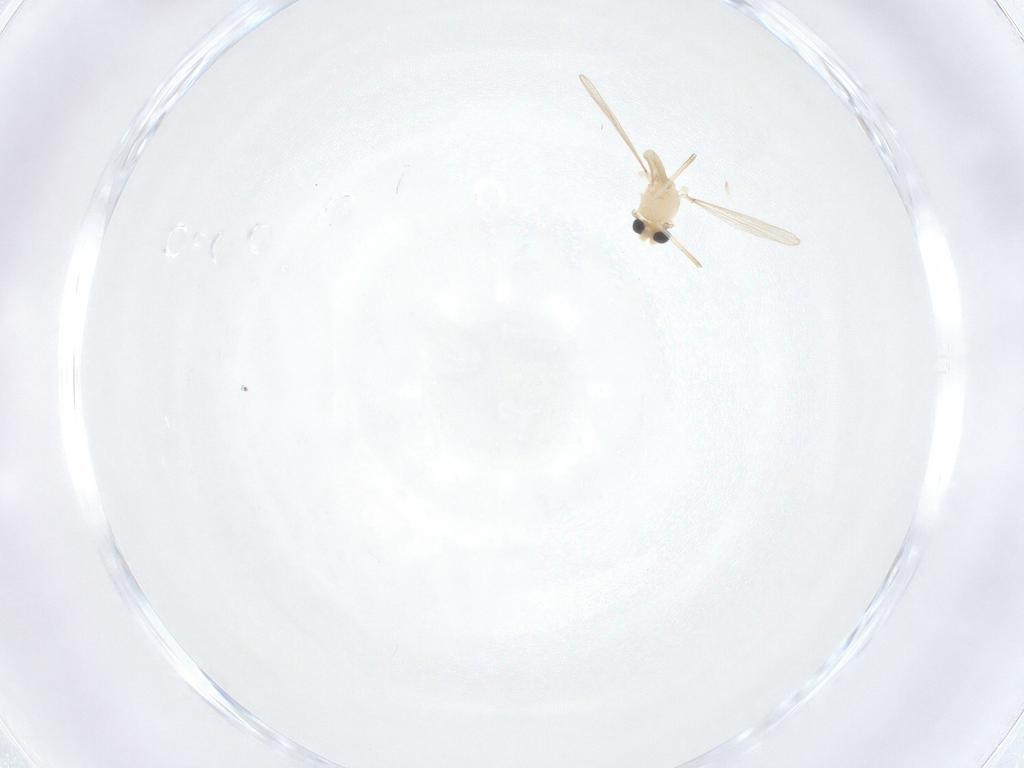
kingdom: Animalia
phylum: Arthropoda
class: Insecta
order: Diptera
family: Chironomidae
